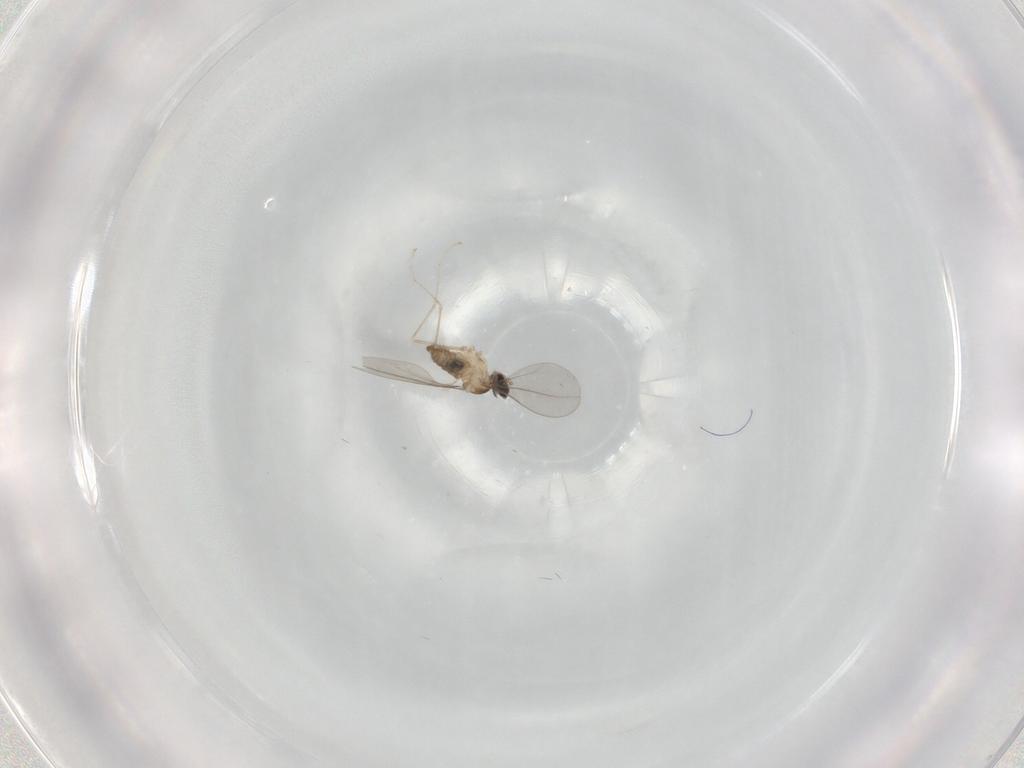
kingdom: Animalia
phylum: Arthropoda
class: Insecta
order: Diptera
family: Cecidomyiidae
